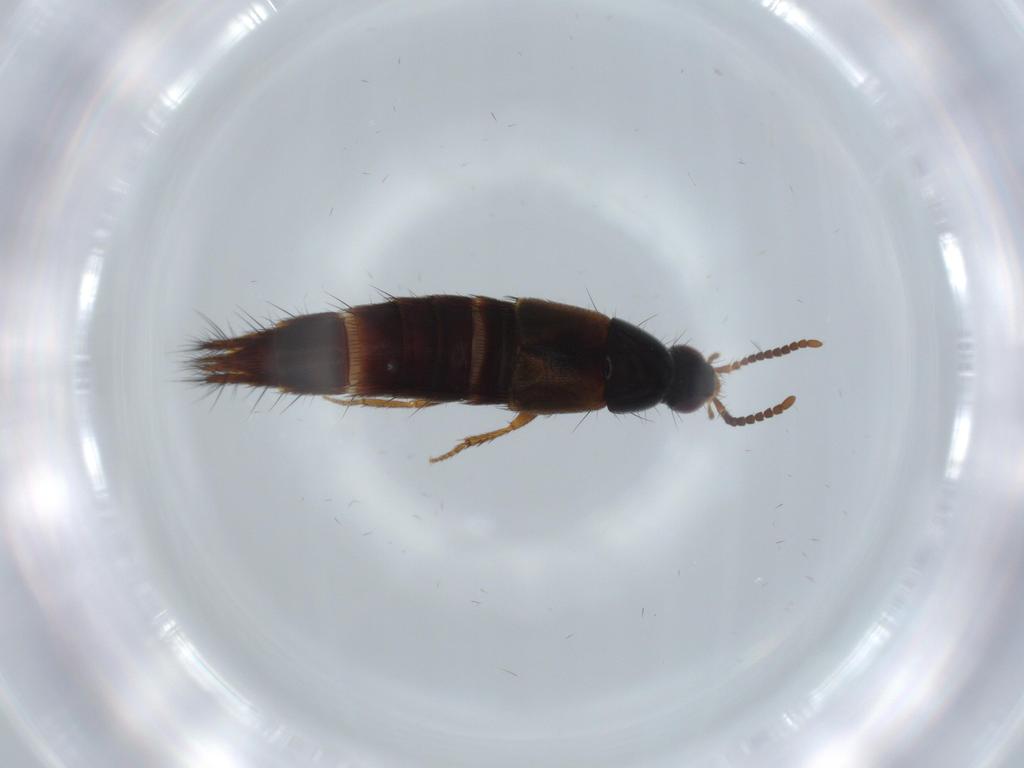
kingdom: Animalia
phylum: Arthropoda
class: Insecta
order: Coleoptera
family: Staphylinidae
